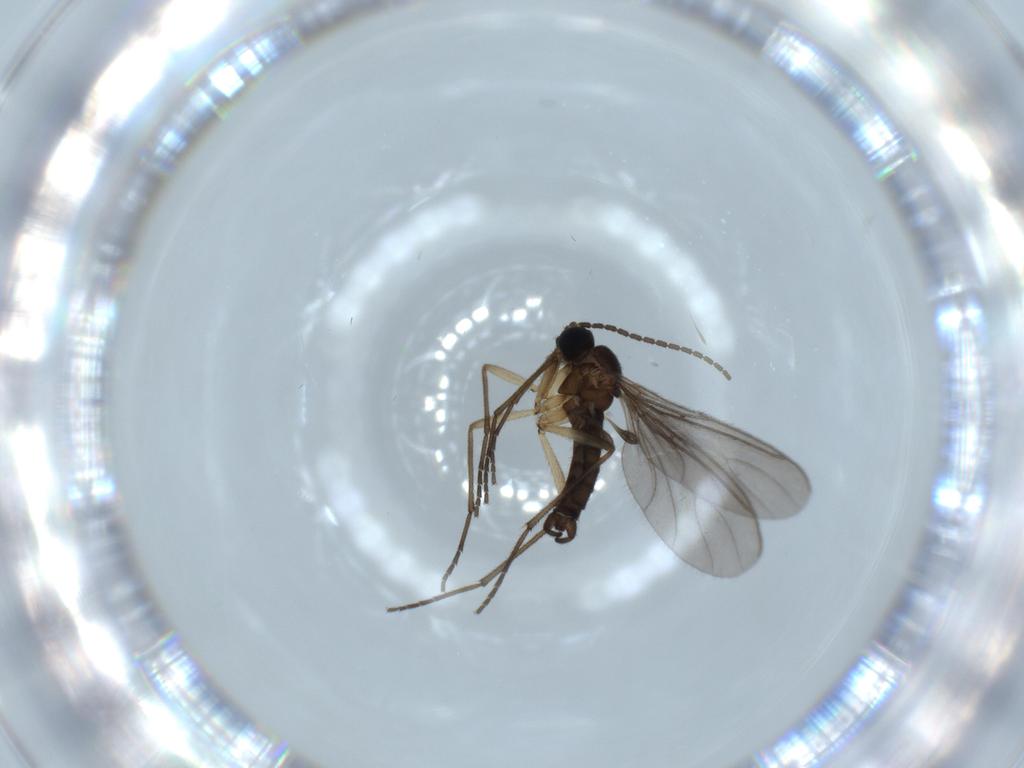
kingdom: Animalia
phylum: Arthropoda
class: Insecta
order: Diptera
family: Sciaridae
